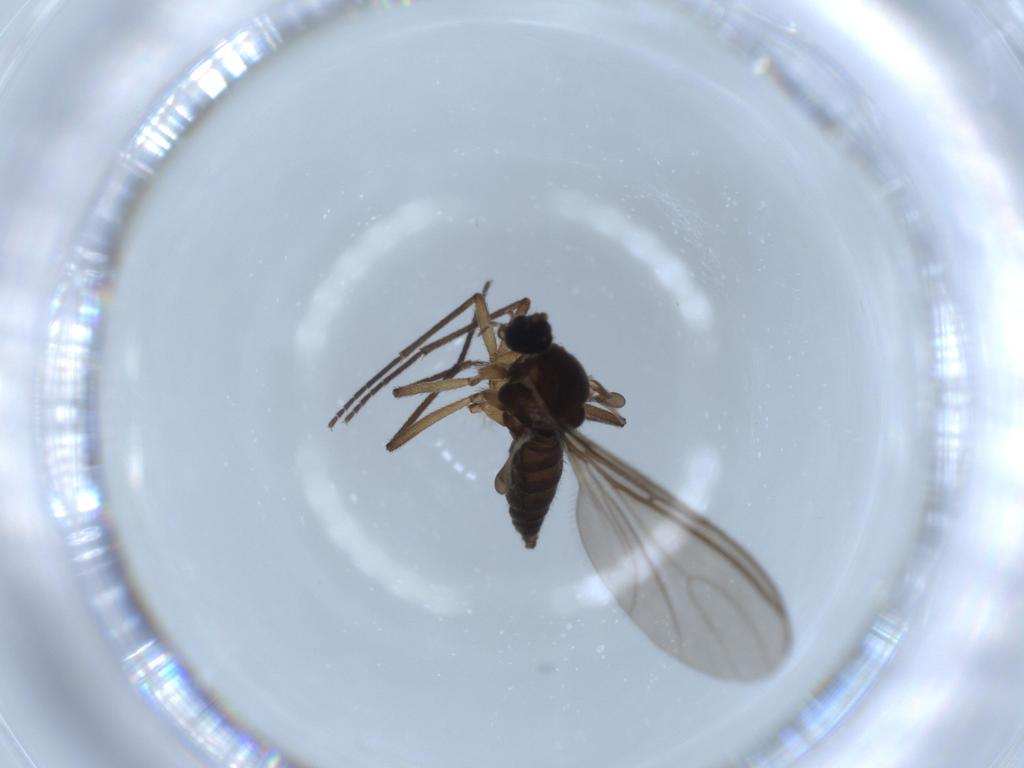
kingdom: Animalia
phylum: Arthropoda
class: Insecta
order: Diptera
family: Sciaridae
